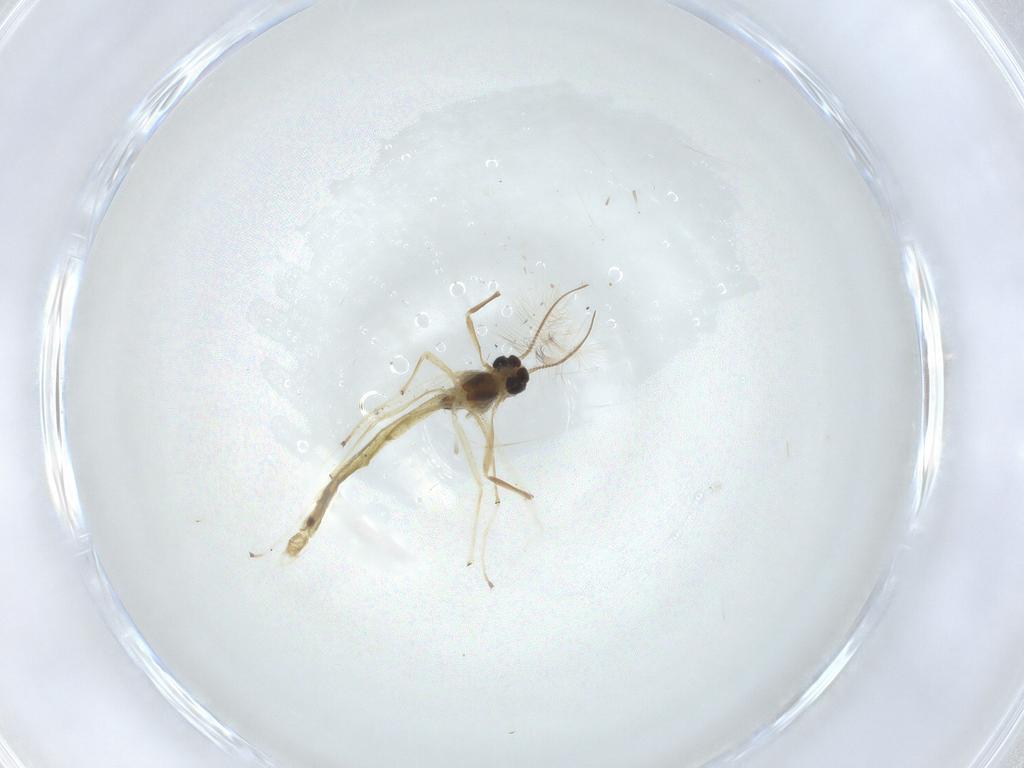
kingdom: Animalia
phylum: Arthropoda
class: Insecta
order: Diptera
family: Chironomidae
